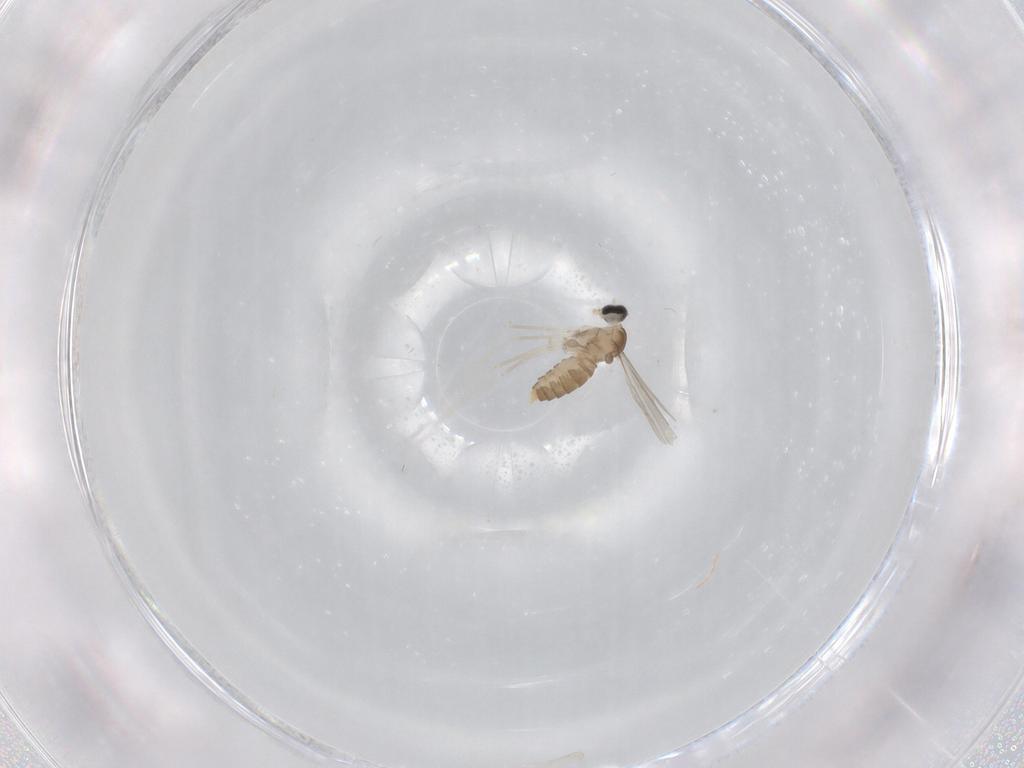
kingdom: Animalia
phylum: Arthropoda
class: Insecta
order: Diptera
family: Cecidomyiidae
